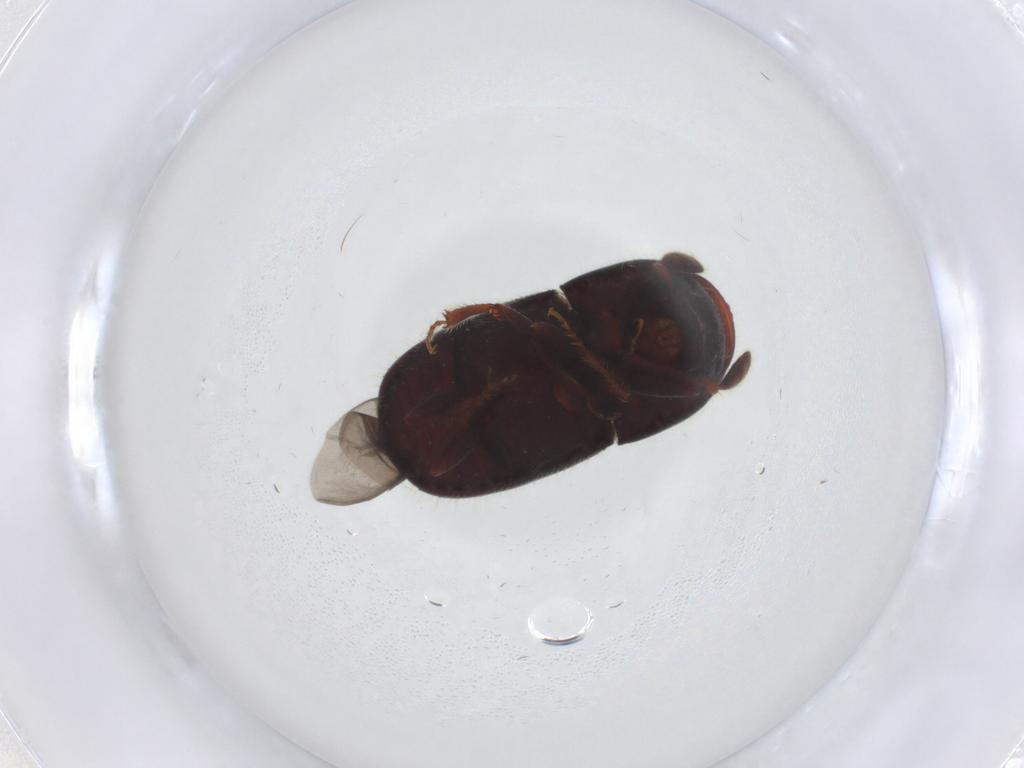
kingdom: Animalia
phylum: Arthropoda
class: Insecta
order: Coleoptera
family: Curculionidae
